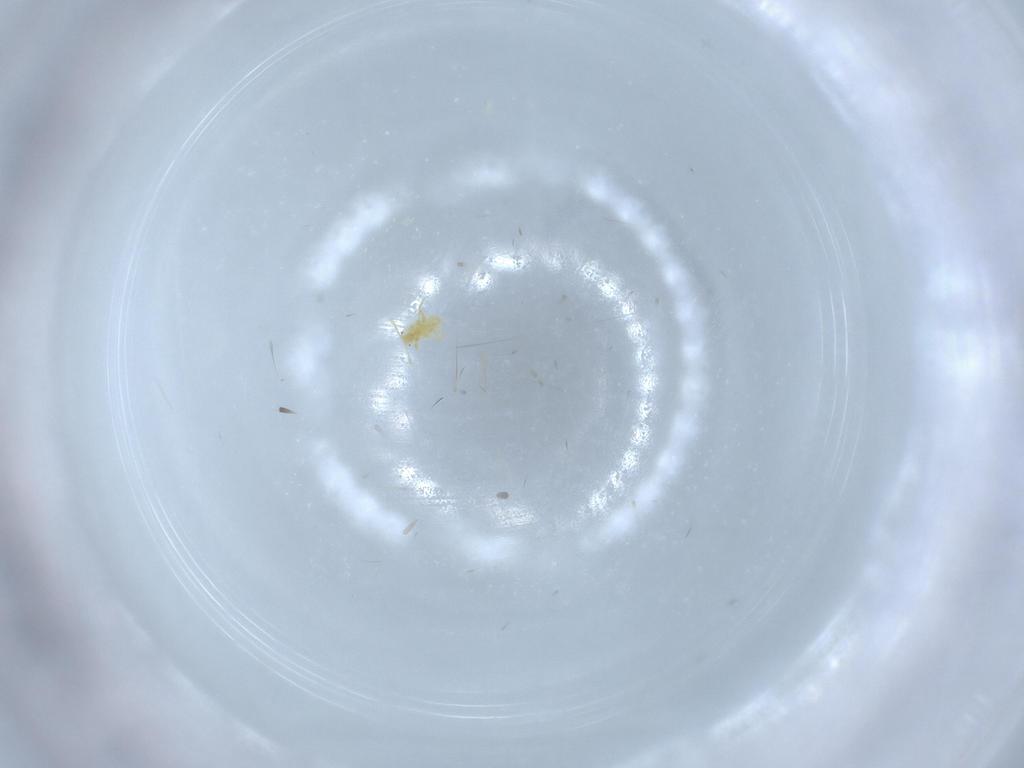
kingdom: Animalia
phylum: Arthropoda
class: Insecta
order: Hemiptera
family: Coccoidea_incertae_sedis
